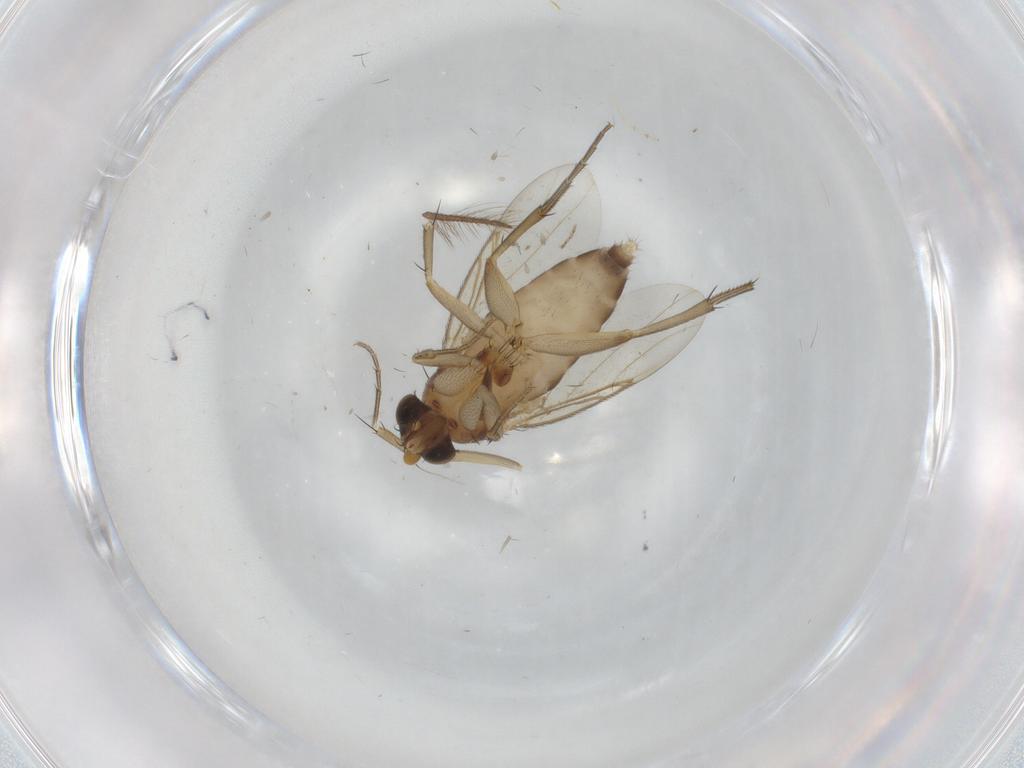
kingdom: Animalia
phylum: Arthropoda
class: Insecta
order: Diptera
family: Phoridae
